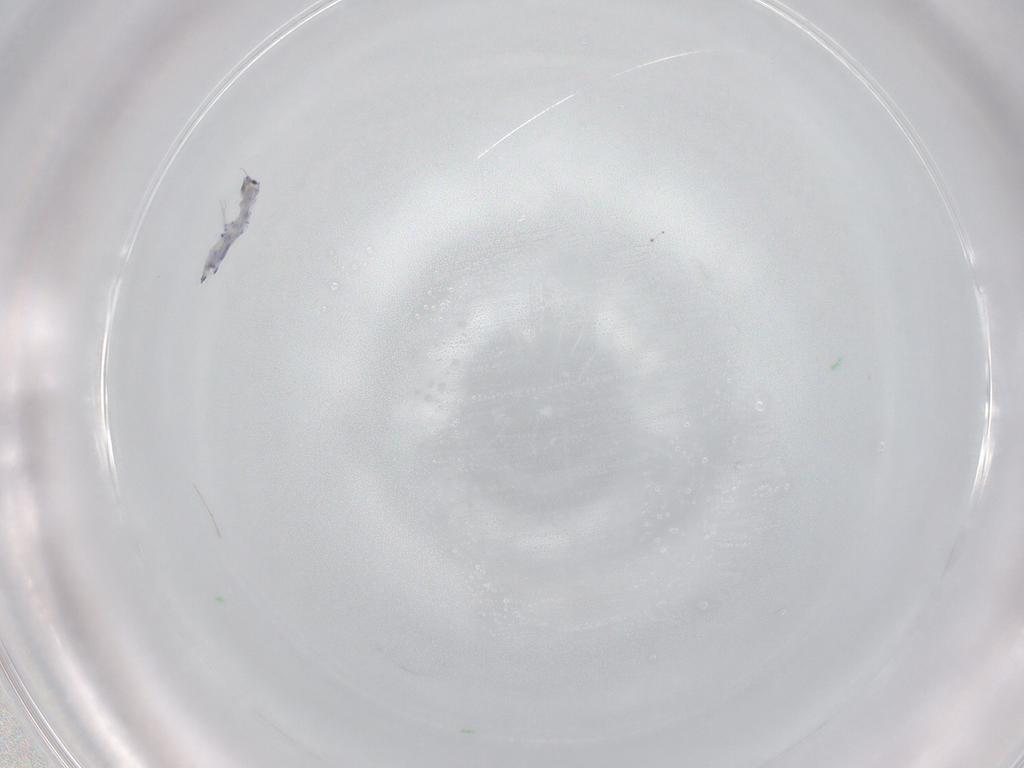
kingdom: Animalia
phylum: Arthropoda
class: Collembola
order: Entomobryomorpha
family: Entomobryidae
